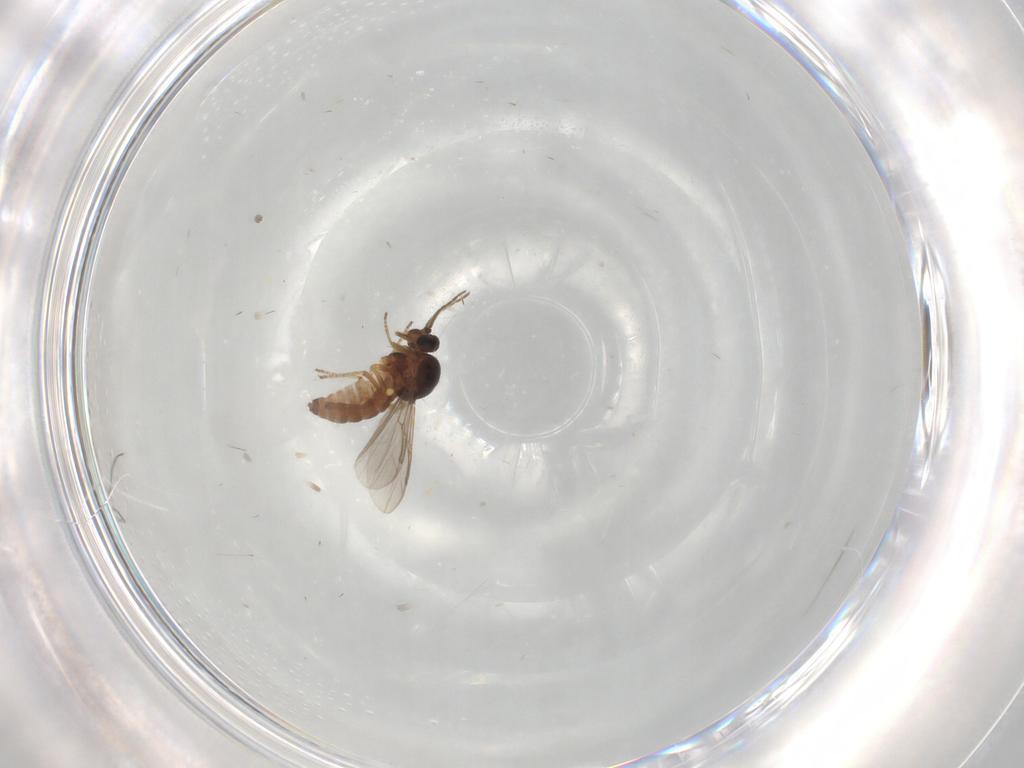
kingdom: Animalia
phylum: Arthropoda
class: Insecta
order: Diptera
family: Ceratopogonidae
